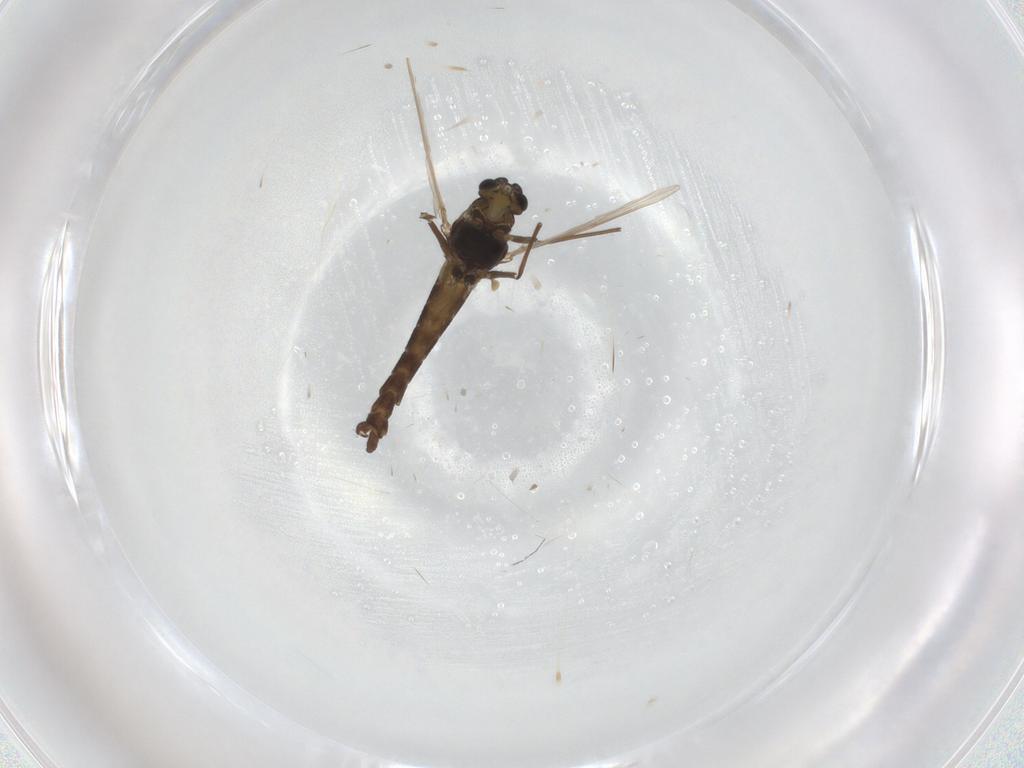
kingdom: Animalia
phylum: Arthropoda
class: Insecta
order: Diptera
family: Chironomidae
